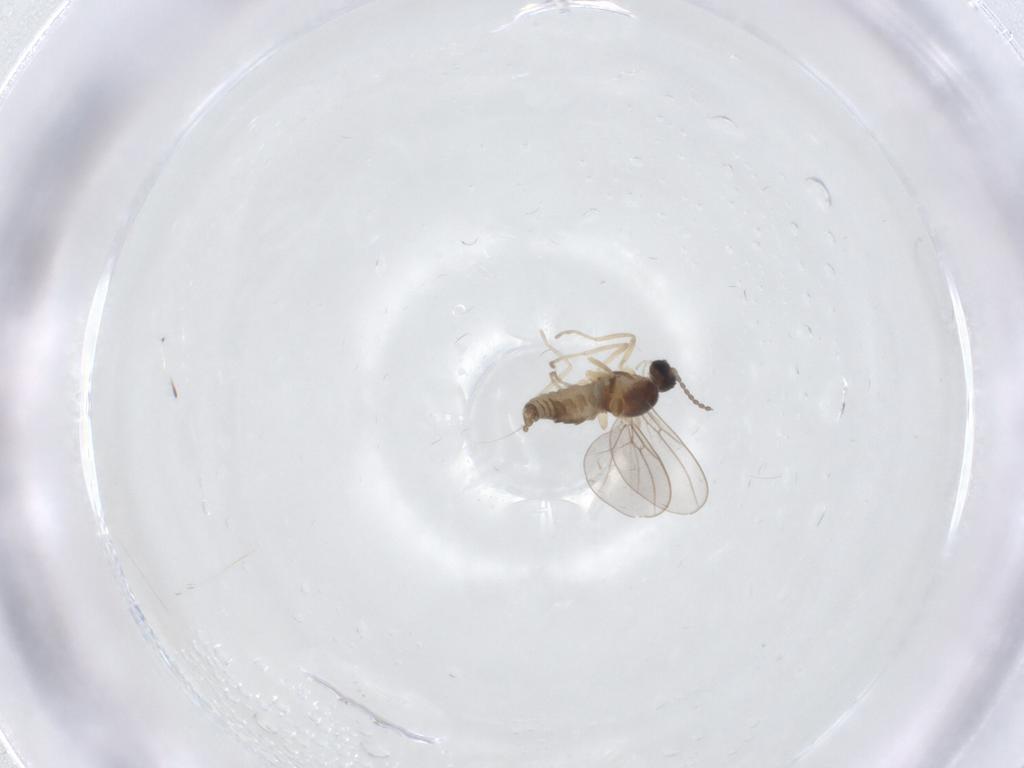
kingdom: Animalia
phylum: Arthropoda
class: Insecta
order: Diptera
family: Cecidomyiidae
